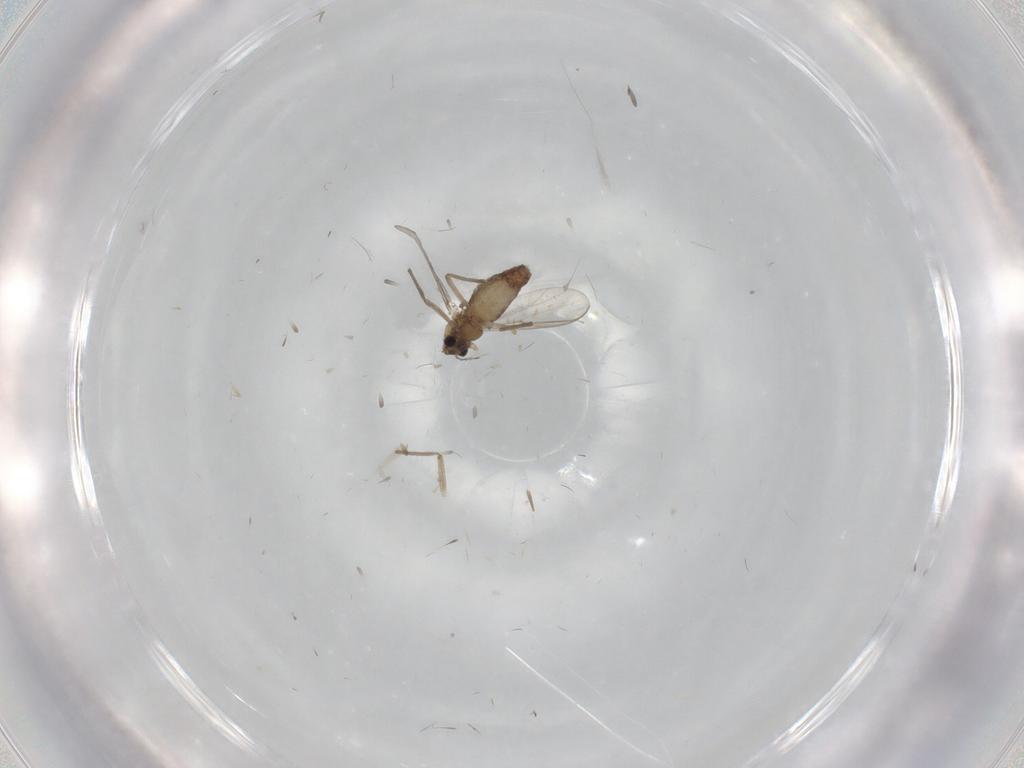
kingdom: Animalia
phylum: Arthropoda
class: Insecta
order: Diptera
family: Chironomidae
